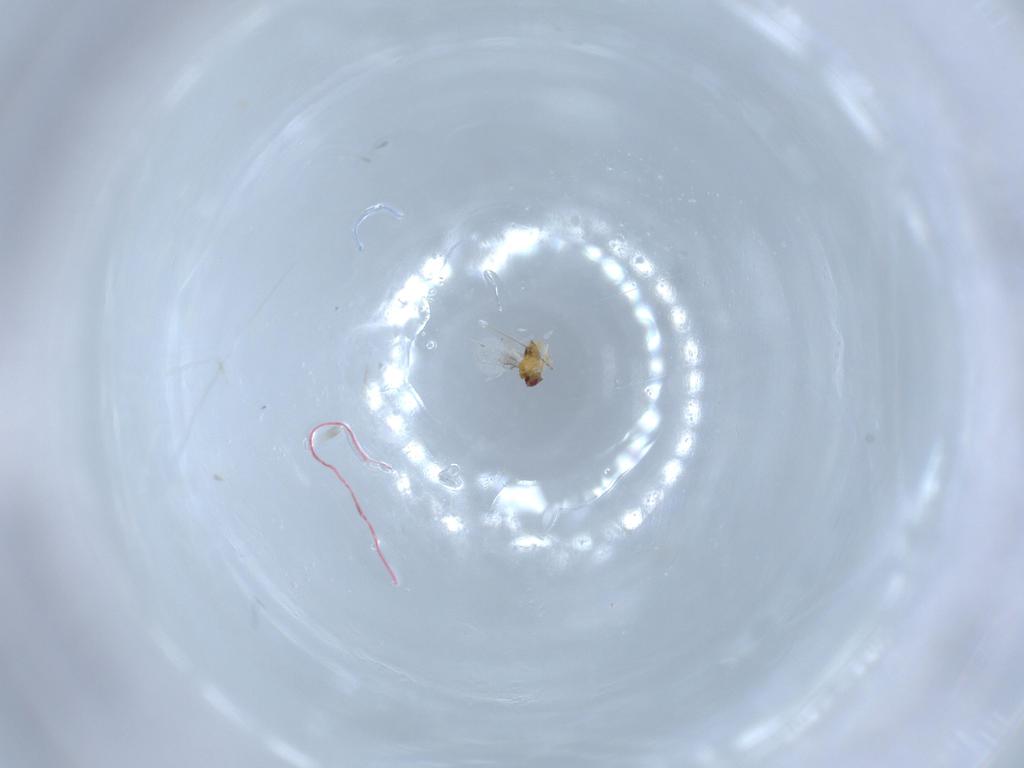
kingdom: Animalia
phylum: Arthropoda
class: Insecta
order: Hymenoptera
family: Trichogrammatidae
